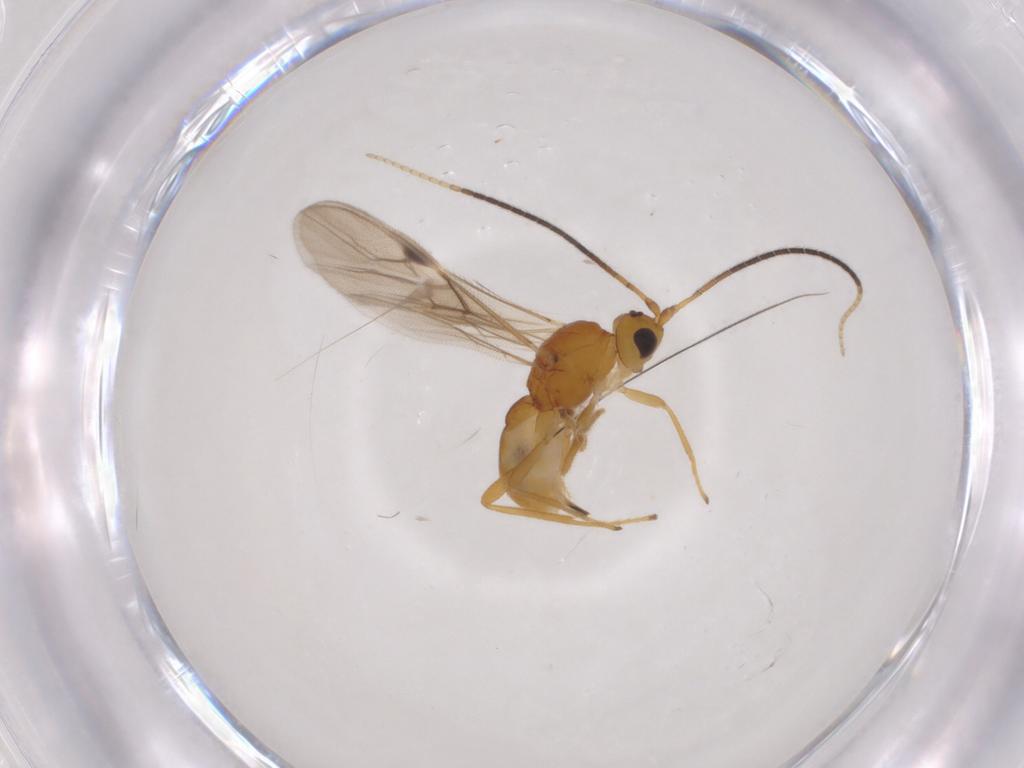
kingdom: Animalia
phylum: Arthropoda
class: Insecta
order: Hymenoptera
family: Braconidae
